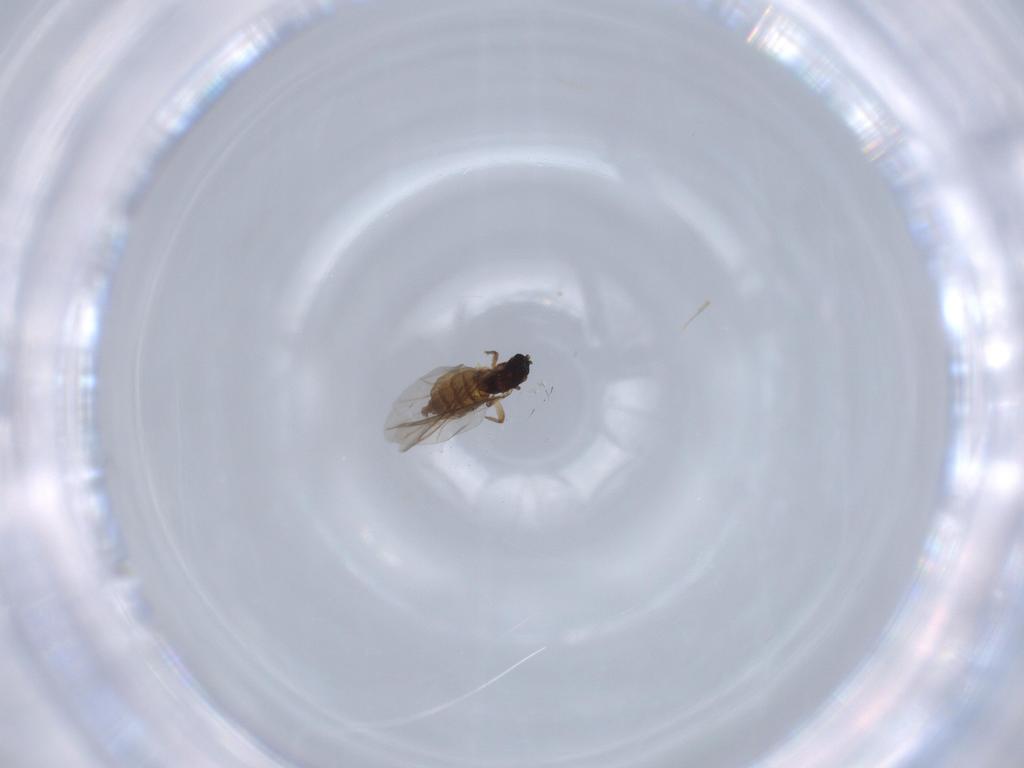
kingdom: Animalia
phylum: Arthropoda
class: Insecta
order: Diptera
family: Sciaridae
